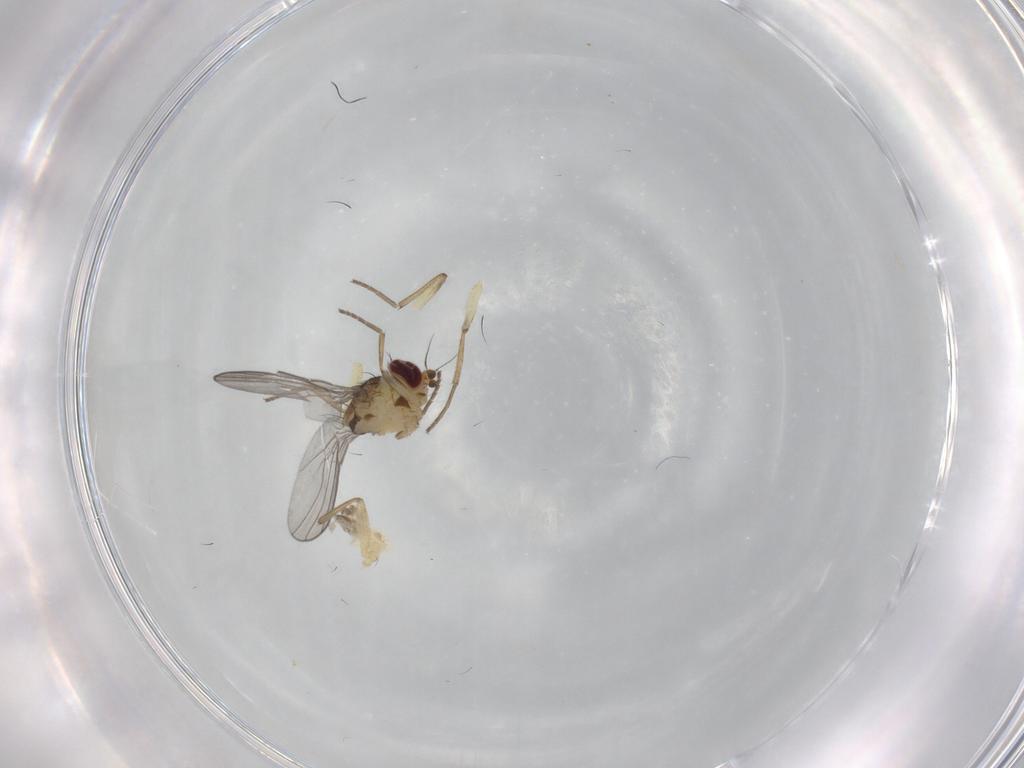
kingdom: Animalia
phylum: Arthropoda
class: Insecta
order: Diptera
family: Agromyzidae
